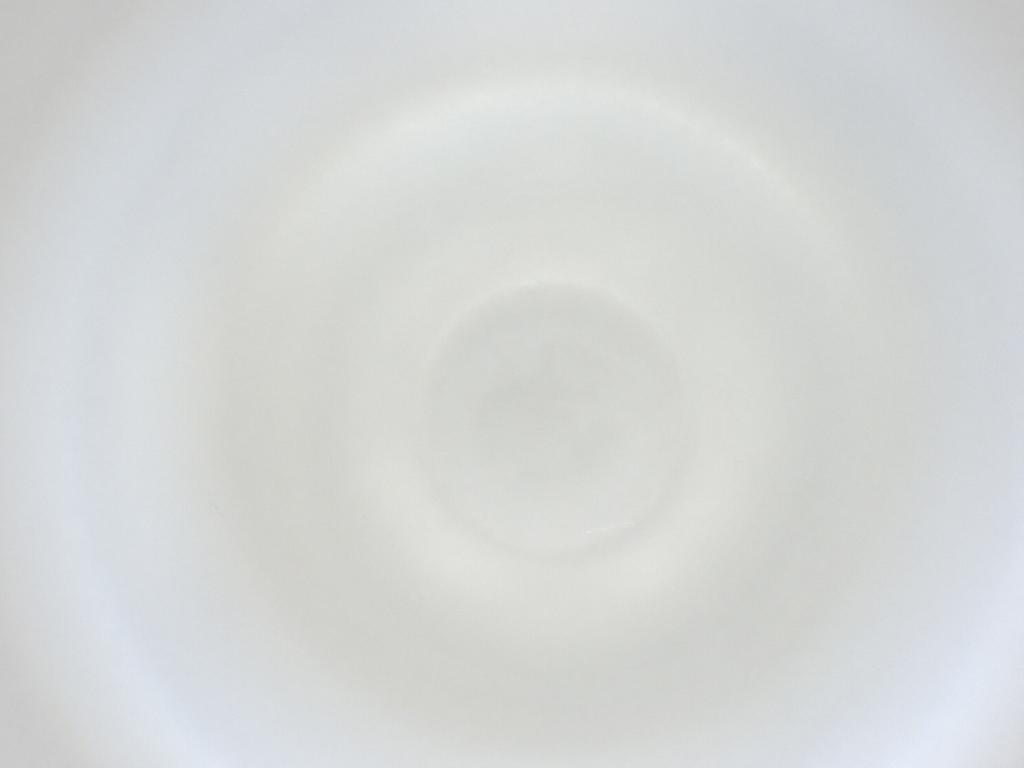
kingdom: Animalia
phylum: Arthropoda
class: Insecta
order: Diptera
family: Cecidomyiidae
